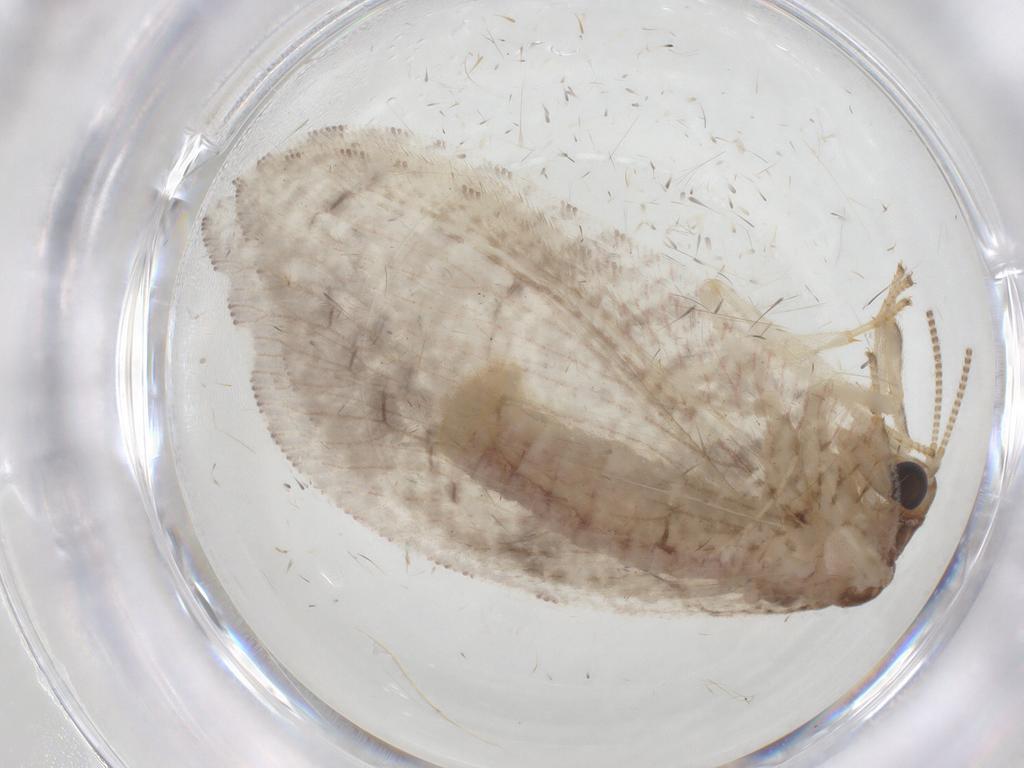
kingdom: Animalia
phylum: Arthropoda
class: Insecta
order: Neuroptera
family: Hemerobiidae
